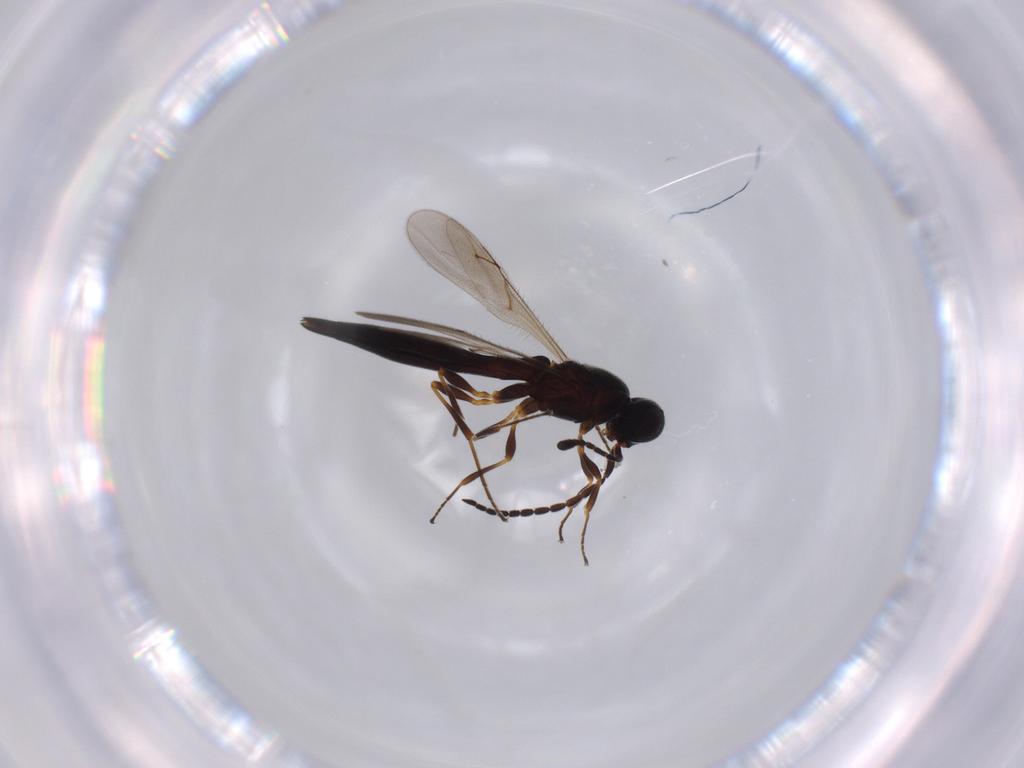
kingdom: Animalia
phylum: Arthropoda
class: Insecta
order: Hymenoptera
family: Scelionidae
